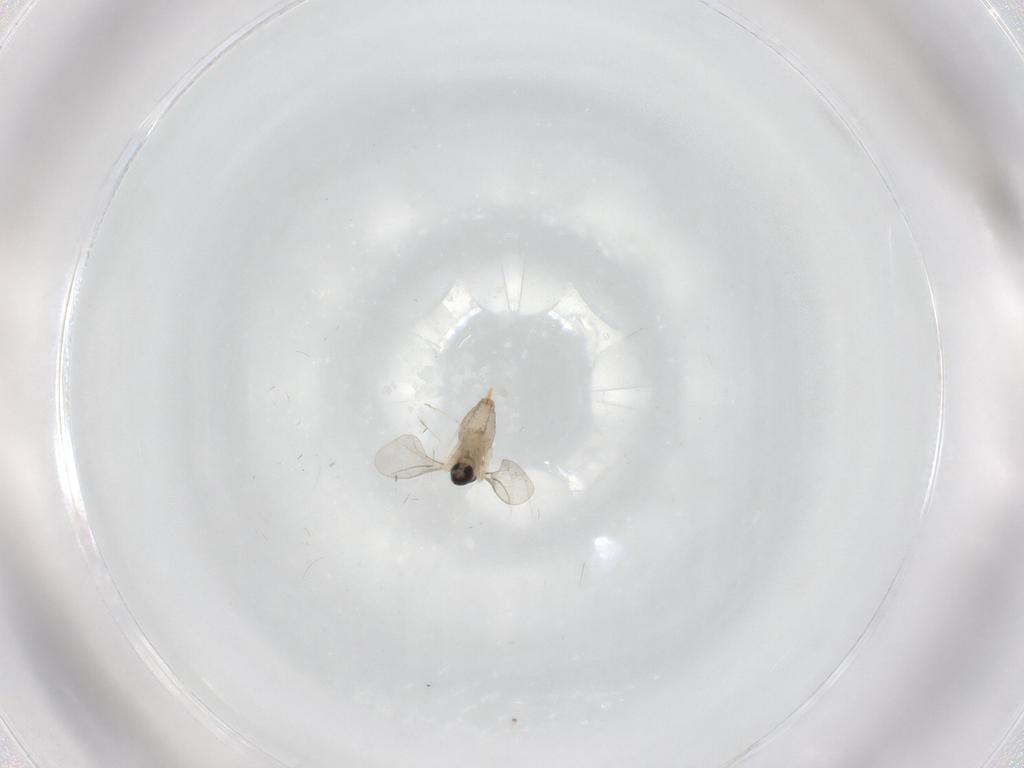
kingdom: Animalia
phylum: Arthropoda
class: Insecta
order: Diptera
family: Cecidomyiidae
